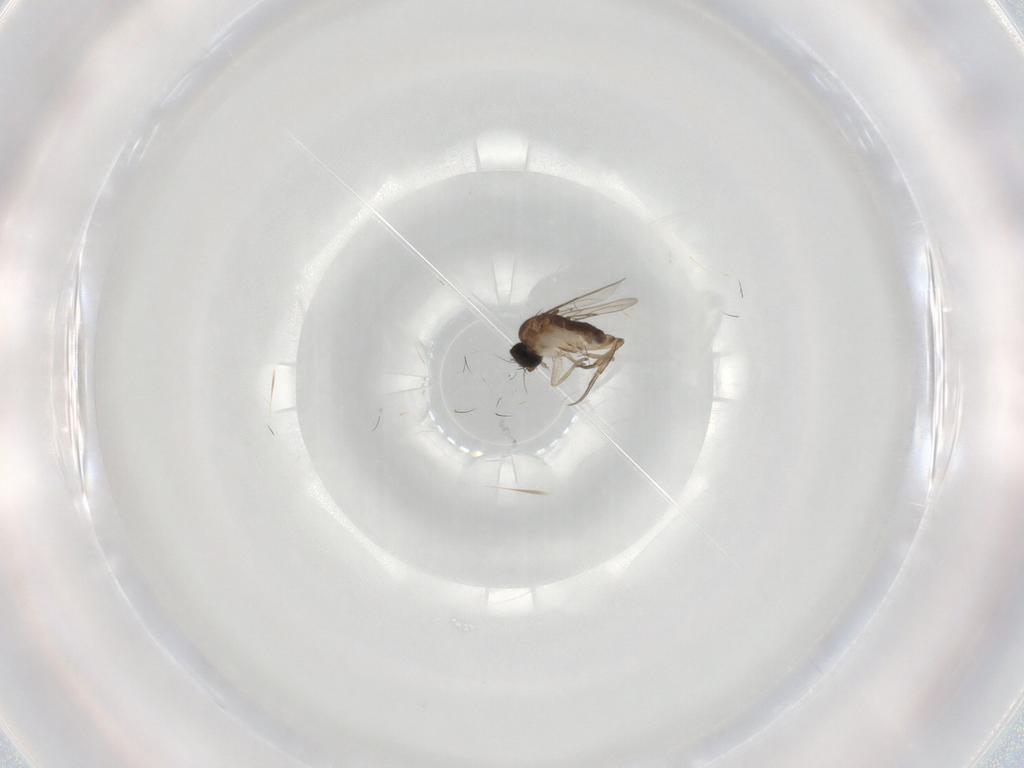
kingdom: Animalia
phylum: Arthropoda
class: Insecta
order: Diptera
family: Phoridae
